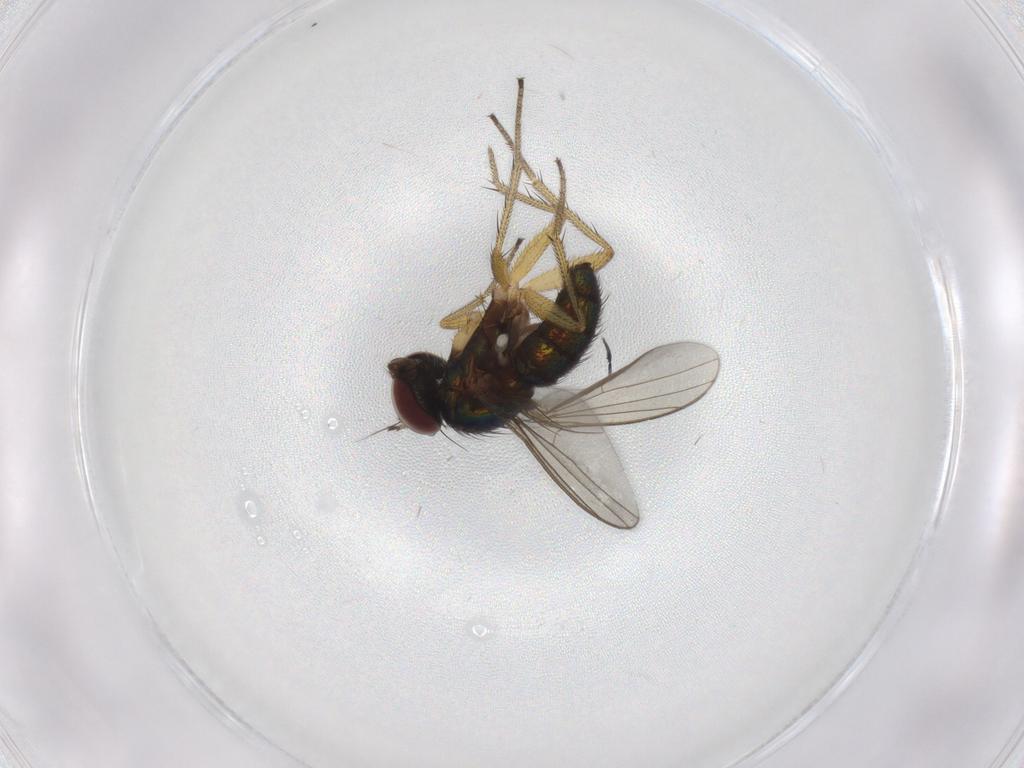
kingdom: Animalia
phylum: Arthropoda
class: Insecta
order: Diptera
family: Dolichopodidae
